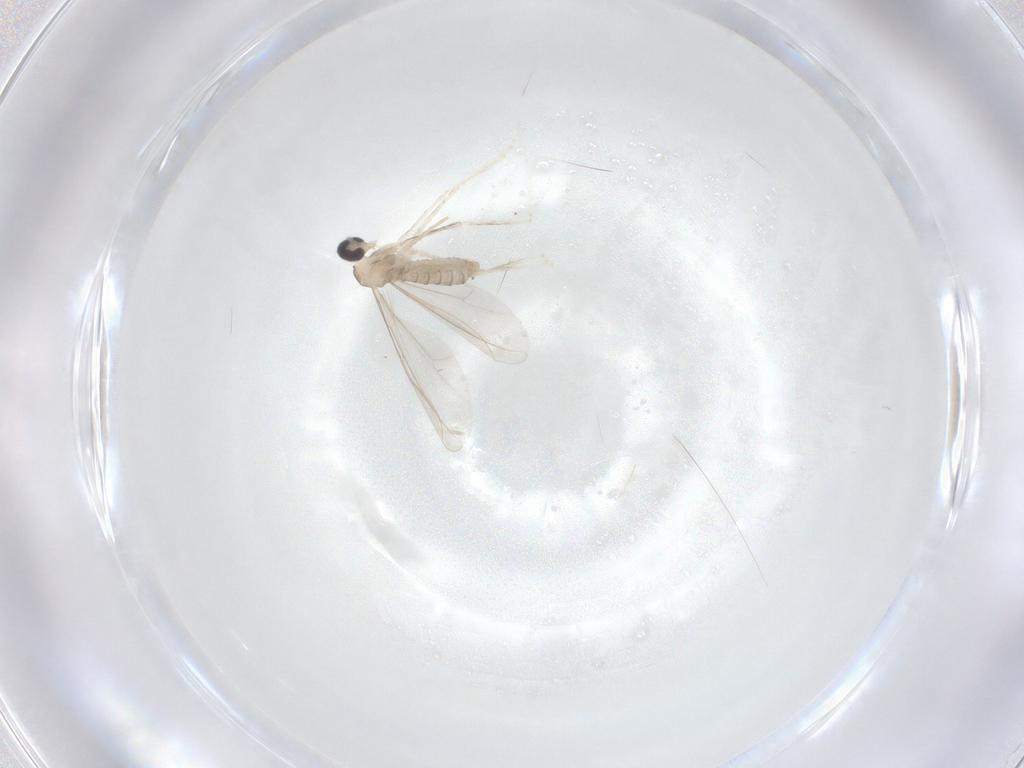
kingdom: Animalia
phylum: Arthropoda
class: Insecta
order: Diptera
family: Cecidomyiidae
